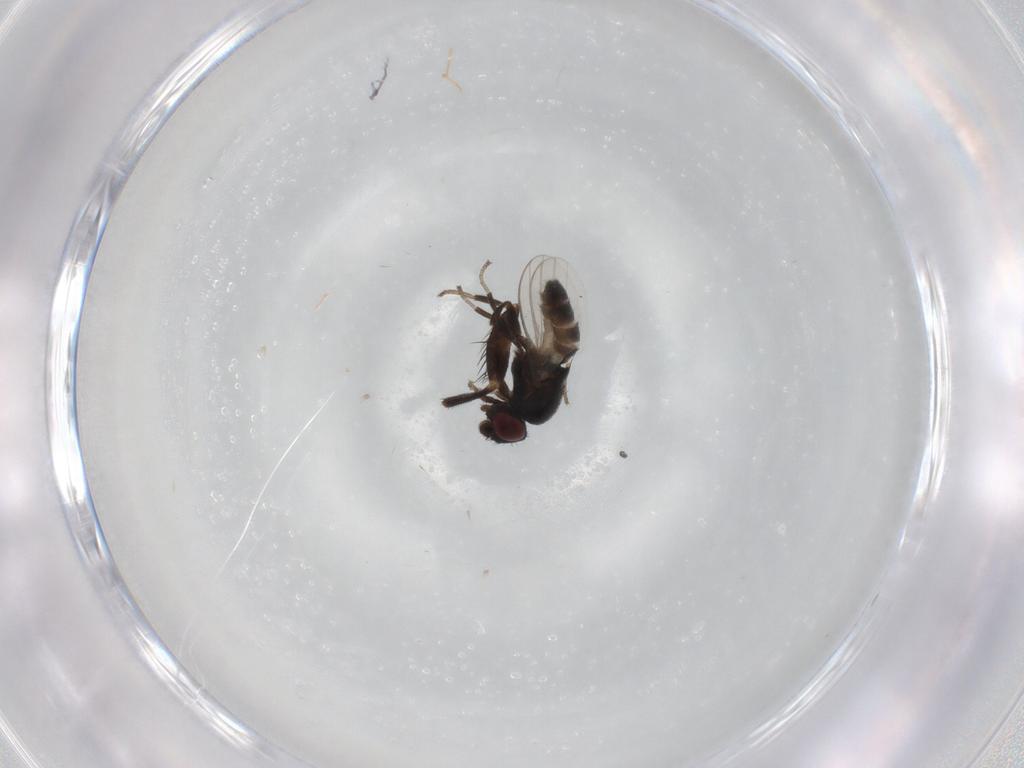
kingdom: Animalia
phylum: Arthropoda
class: Insecta
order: Diptera
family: Milichiidae
